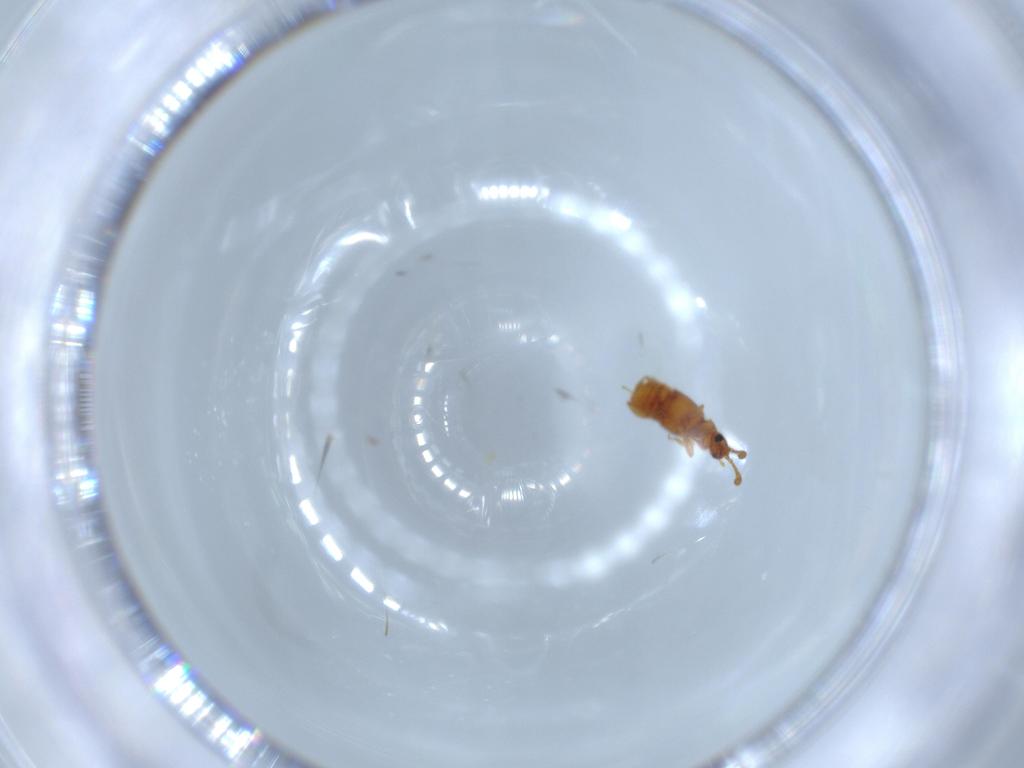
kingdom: Animalia
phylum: Arthropoda
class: Insecta
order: Coleoptera
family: Staphylinidae
